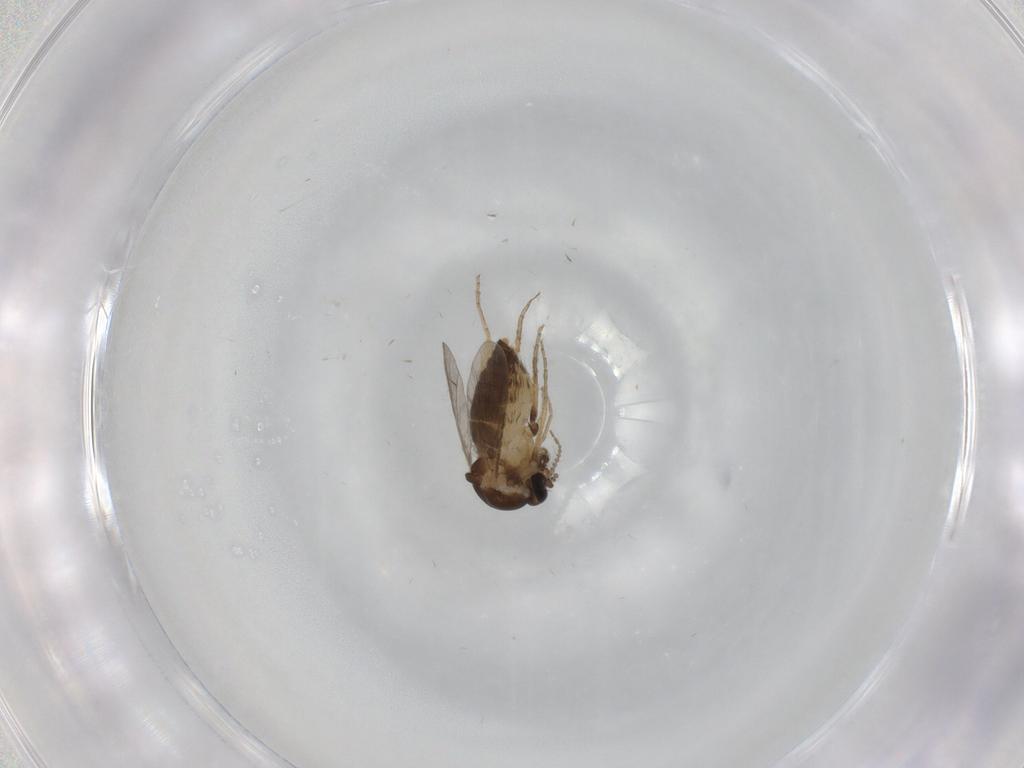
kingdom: Animalia
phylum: Arthropoda
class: Insecta
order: Diptera
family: Ceratopogonidae
